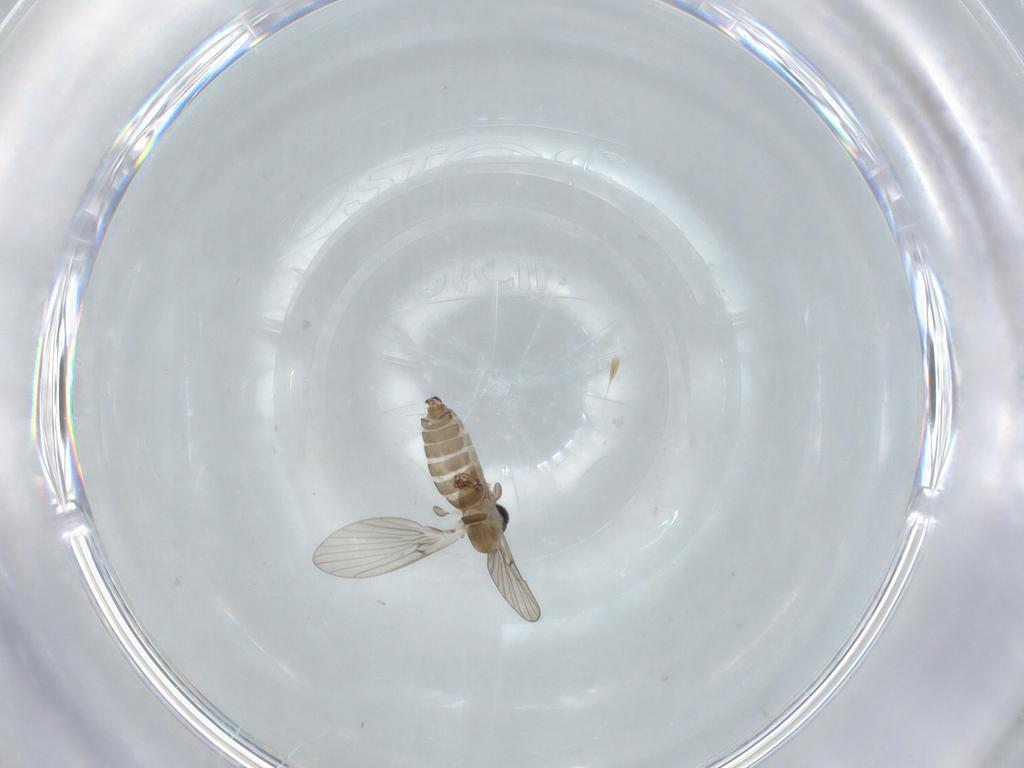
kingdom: Animalia
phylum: Arthropoda
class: Insecta
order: Diptera
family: Psychodidae
